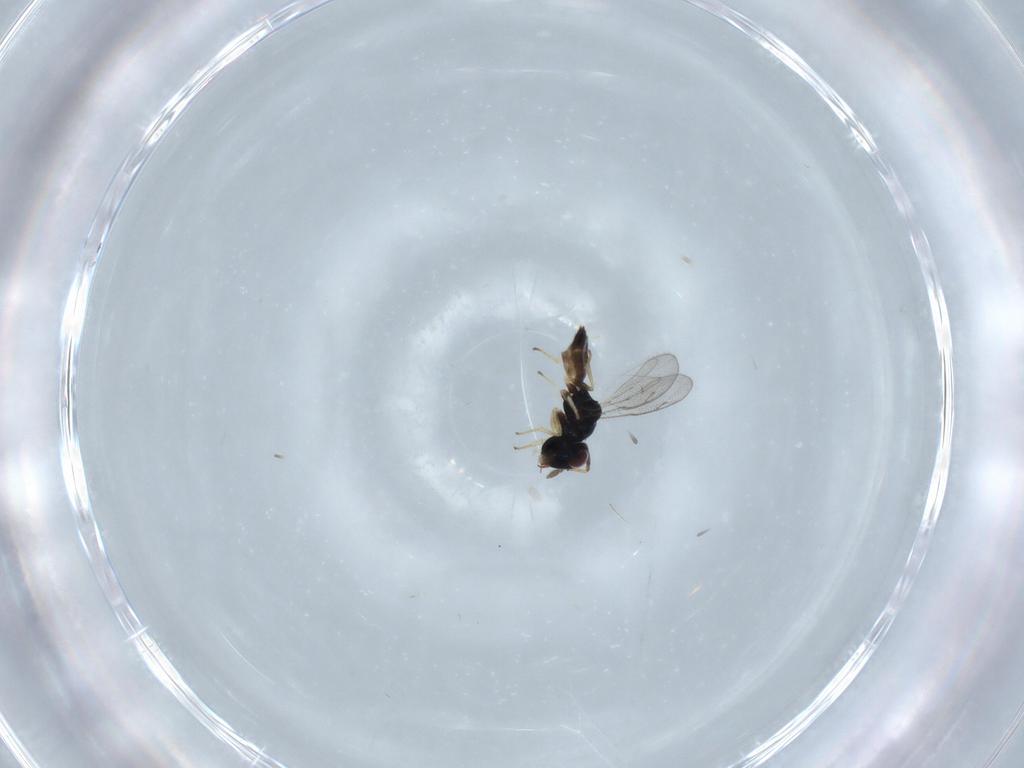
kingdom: Animalia
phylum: Arthropoda
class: Insecta
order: Hymenoptera
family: Pteromalidae
